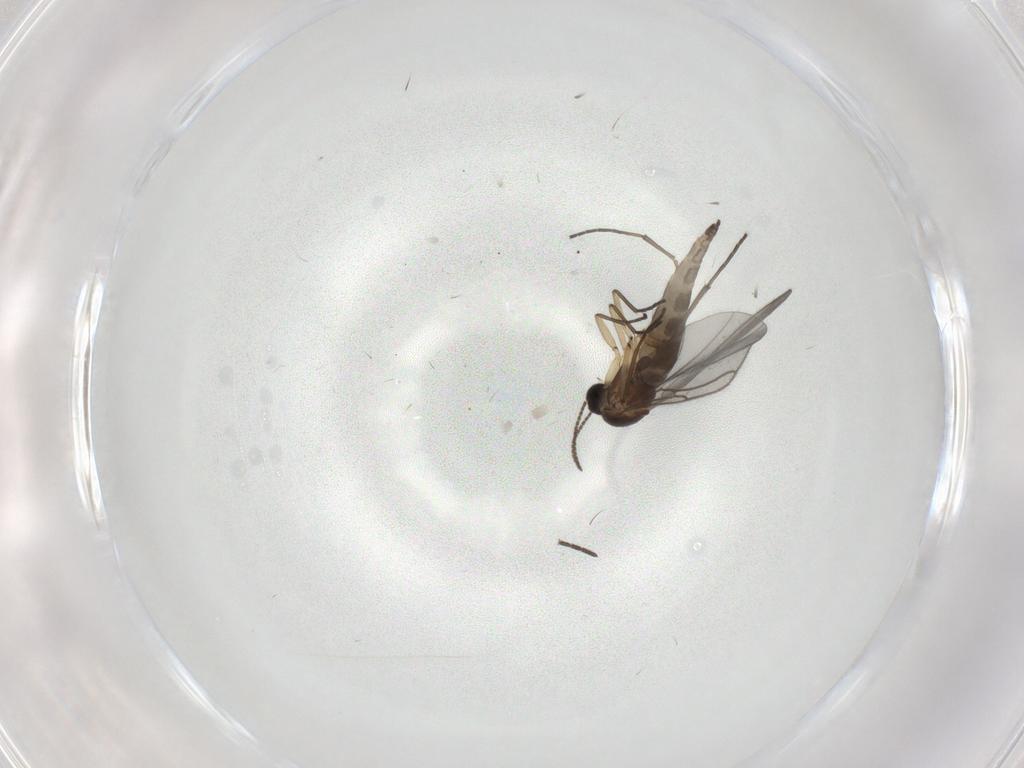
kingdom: Animalia
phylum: Arthropoda
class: Insecta
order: Diptera
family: Sciaridae
